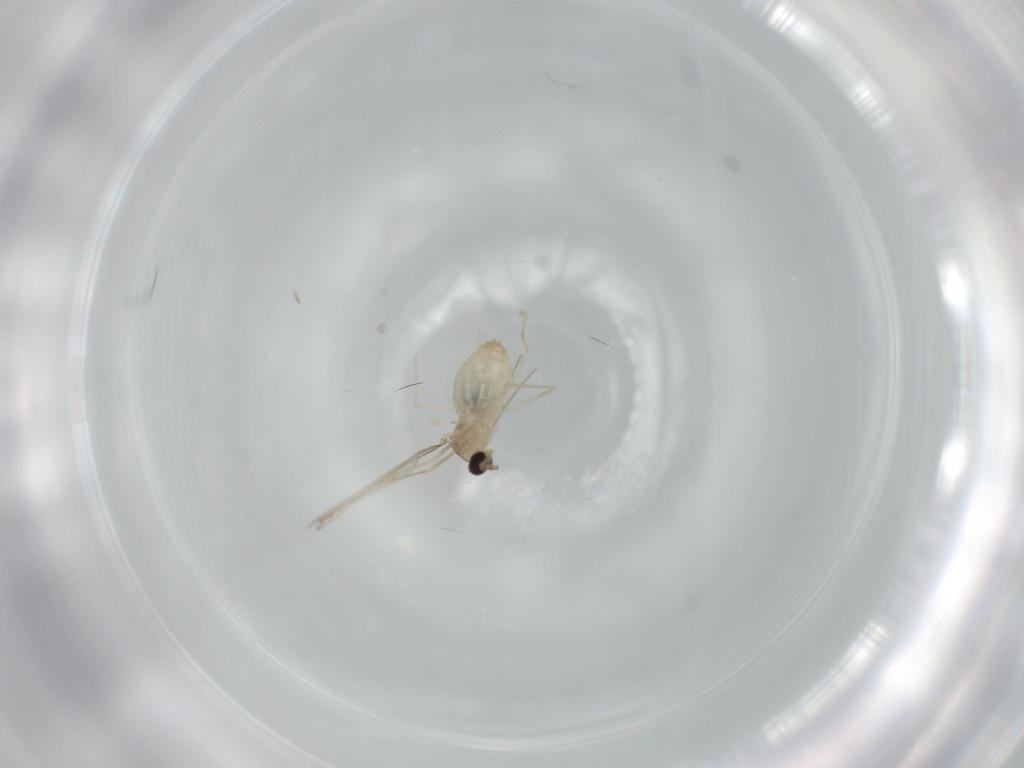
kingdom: Animalia
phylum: Arthropoda
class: Insecta
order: Diptera
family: Cecidomyiidae
